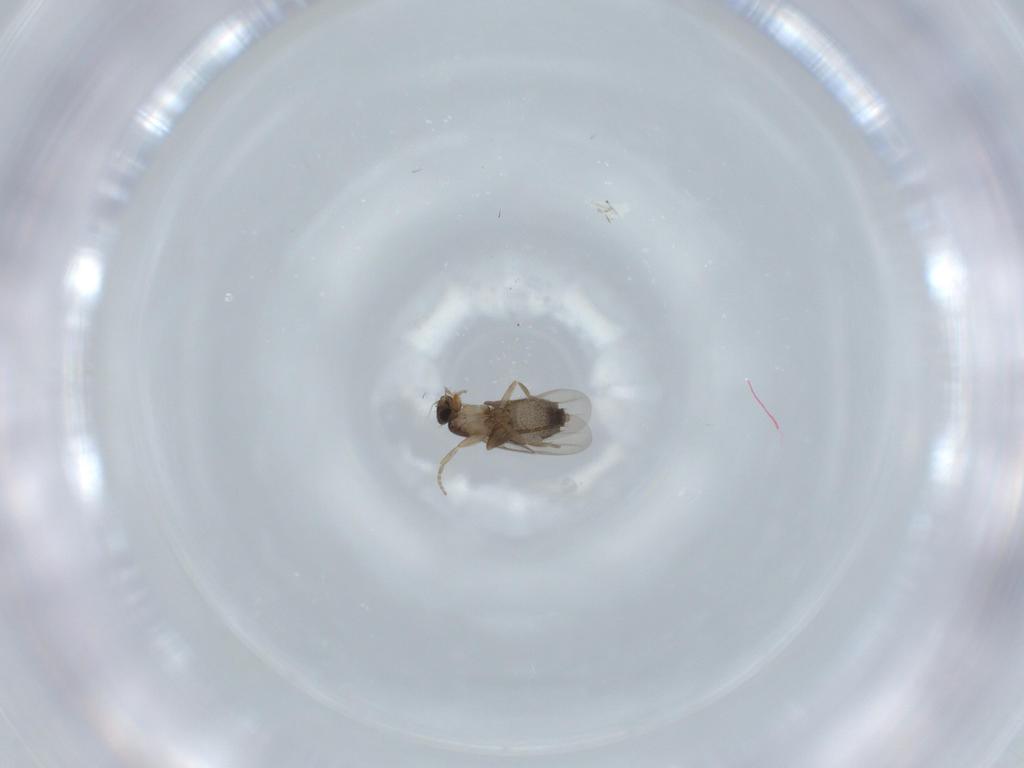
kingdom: Animalia
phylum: Arthropoda
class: Insecta
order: Diptera
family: Phoridae
